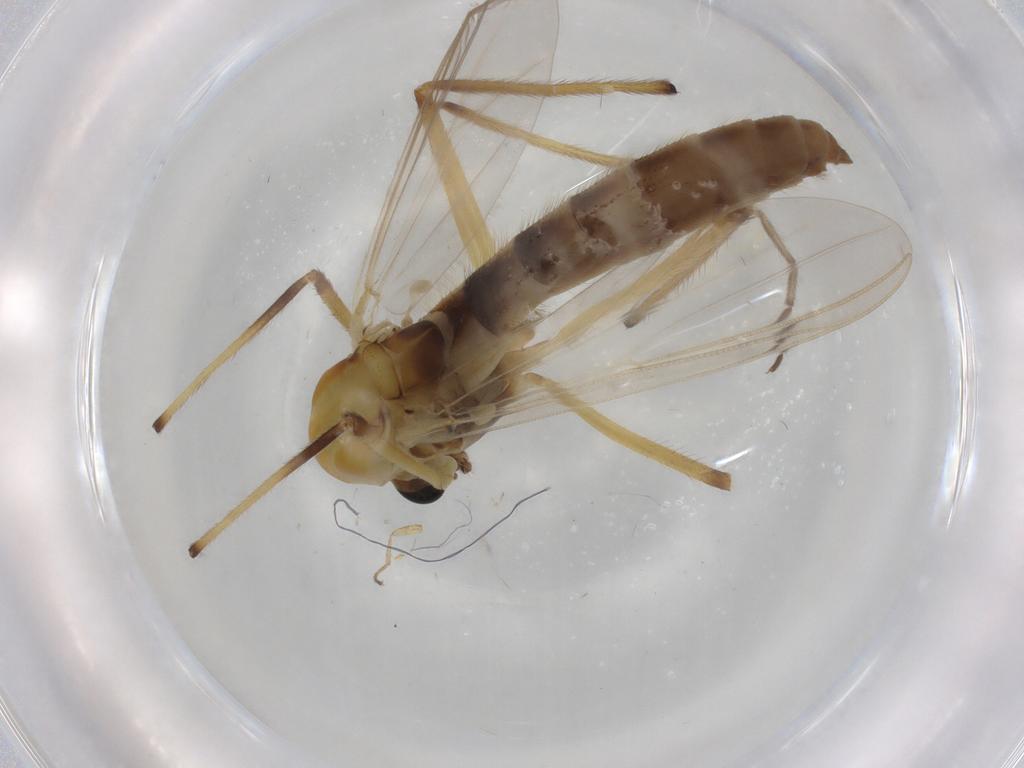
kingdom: Animalia
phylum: Arthropoda
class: Insecta
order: Diptera
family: Chironomidae
